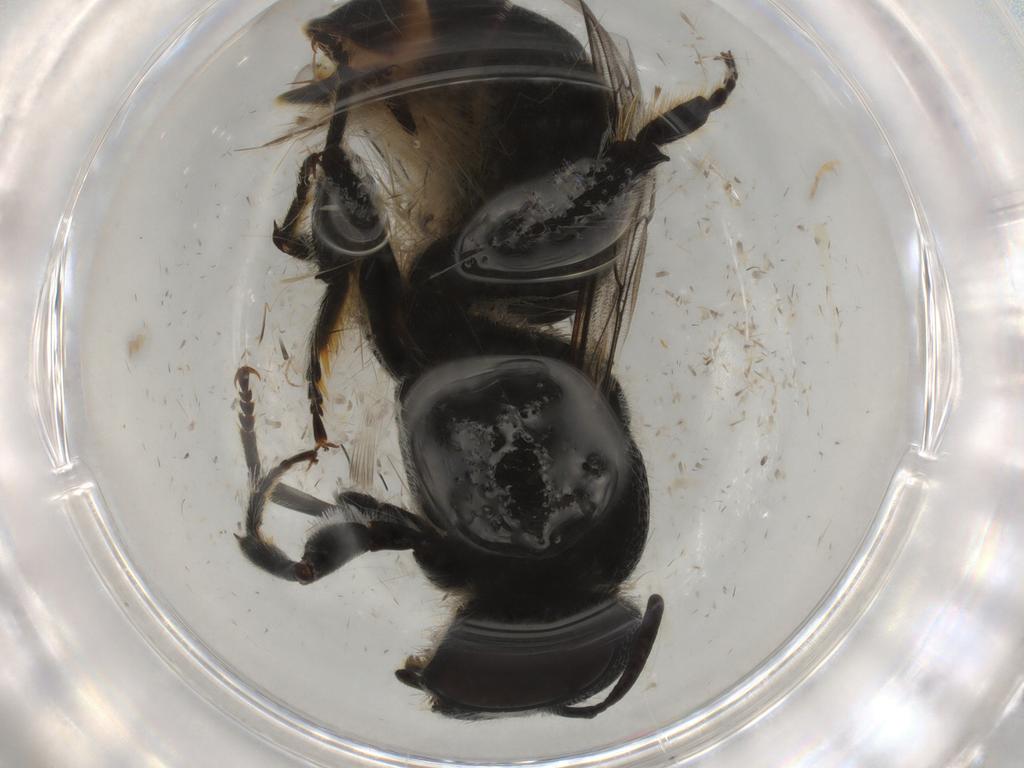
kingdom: Animalia
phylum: Arthropoda
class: Insecta
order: Hymenoptera
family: Megachilidae
